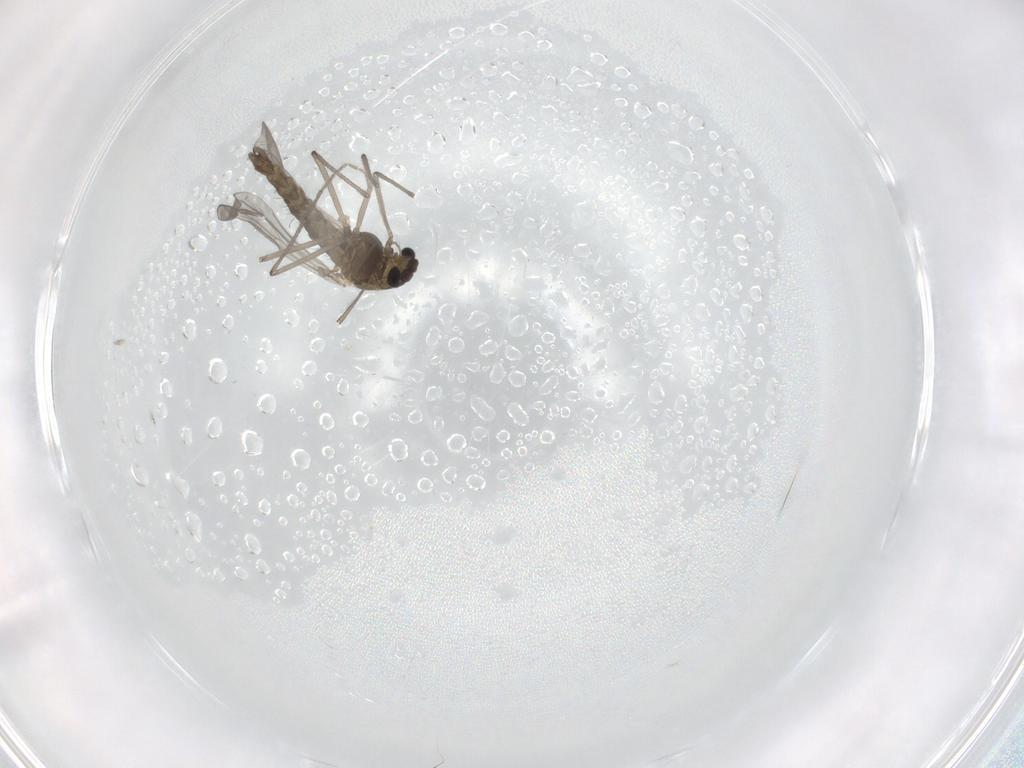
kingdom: Animalia
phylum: Arthropoda
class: Insecta
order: Diptera
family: Chironomidae
